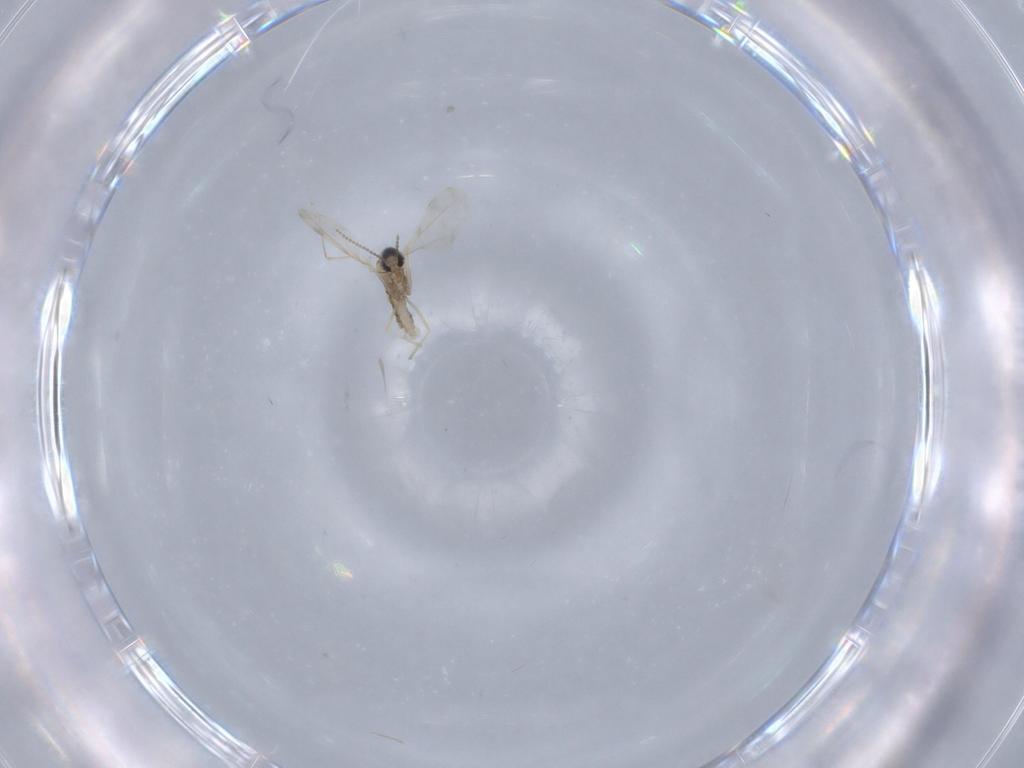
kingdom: Animalia
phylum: Arthropoda
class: Insecta
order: Diptera
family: Cecidomyiidae
